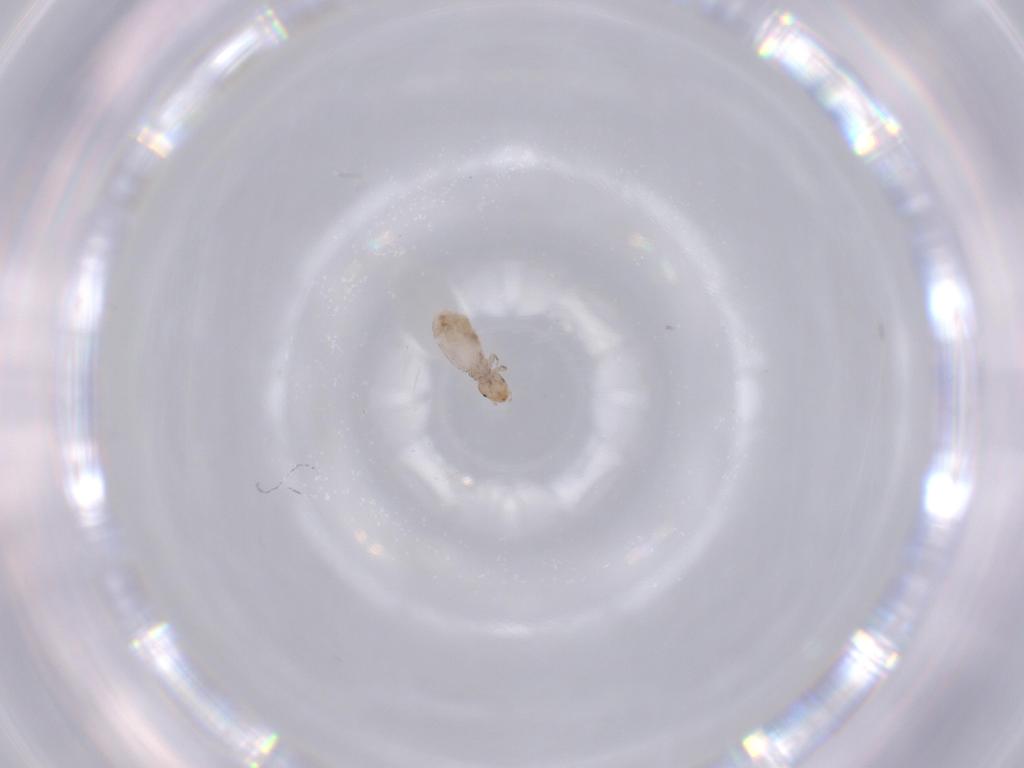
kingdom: Animalia
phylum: Arthropoda
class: Insecta
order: Psocodea
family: Liposcelididae
